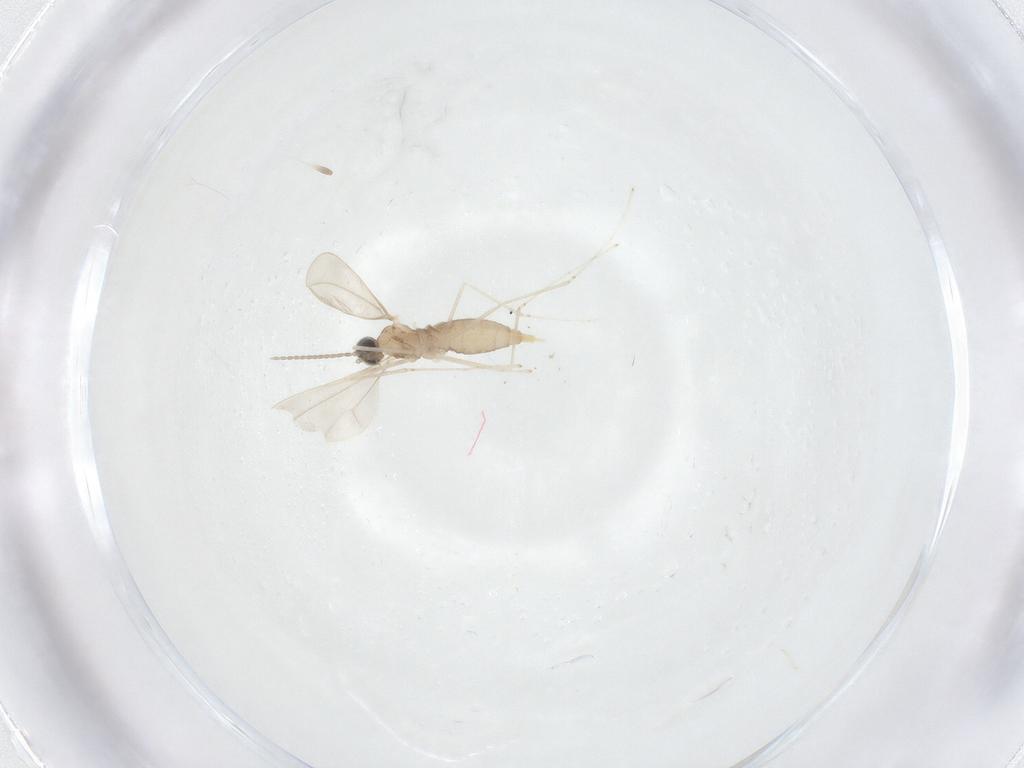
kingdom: Animalia
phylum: Arthropoda
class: Insecta
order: Diptera
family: Cecidomyiidae
